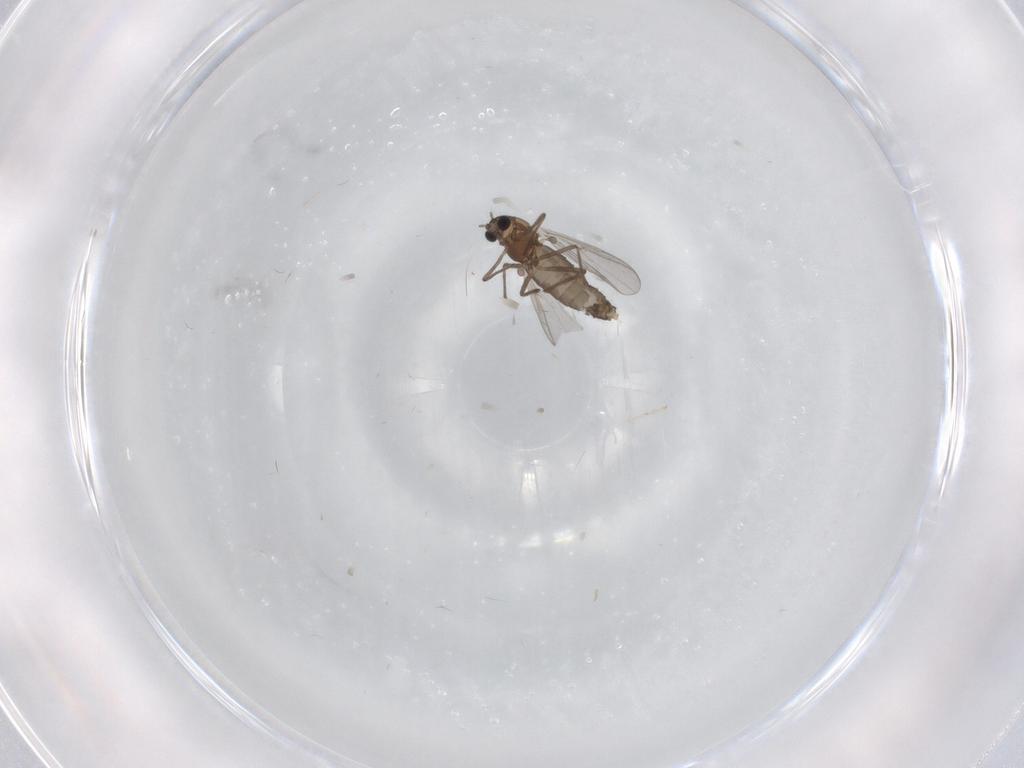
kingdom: Animalia
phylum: Arthropoda
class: Insecta
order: Diptera
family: Chironomidae
